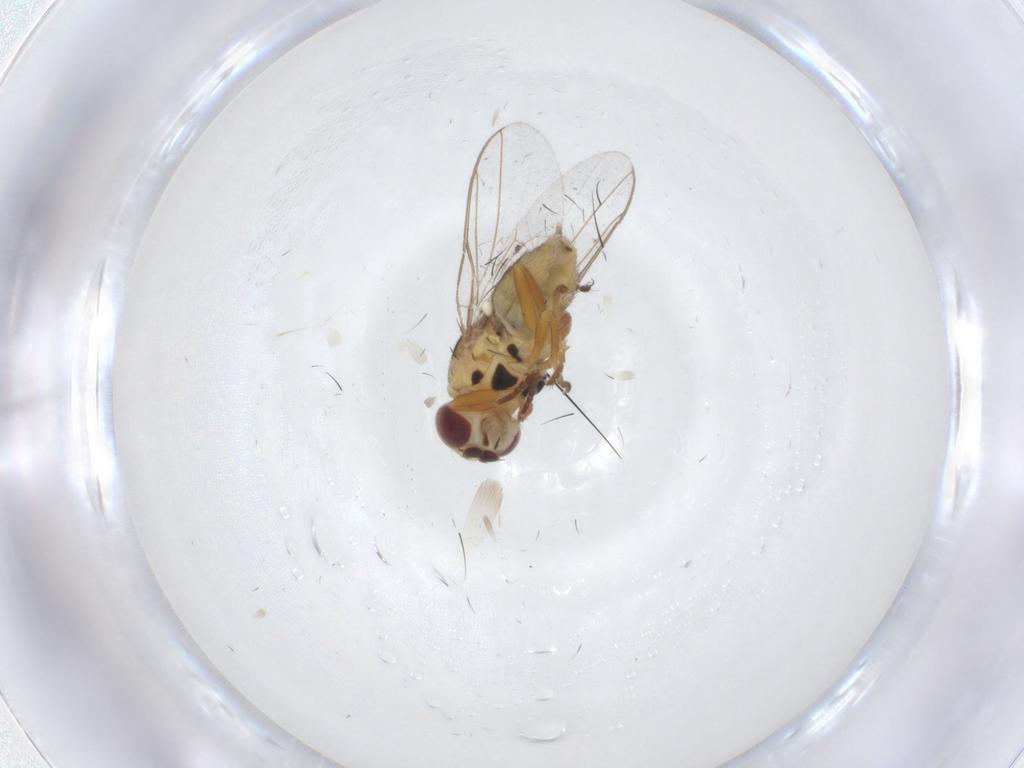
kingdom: Animalia
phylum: Arthropoda
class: Insecta
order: Diptera
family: Chloropidae
